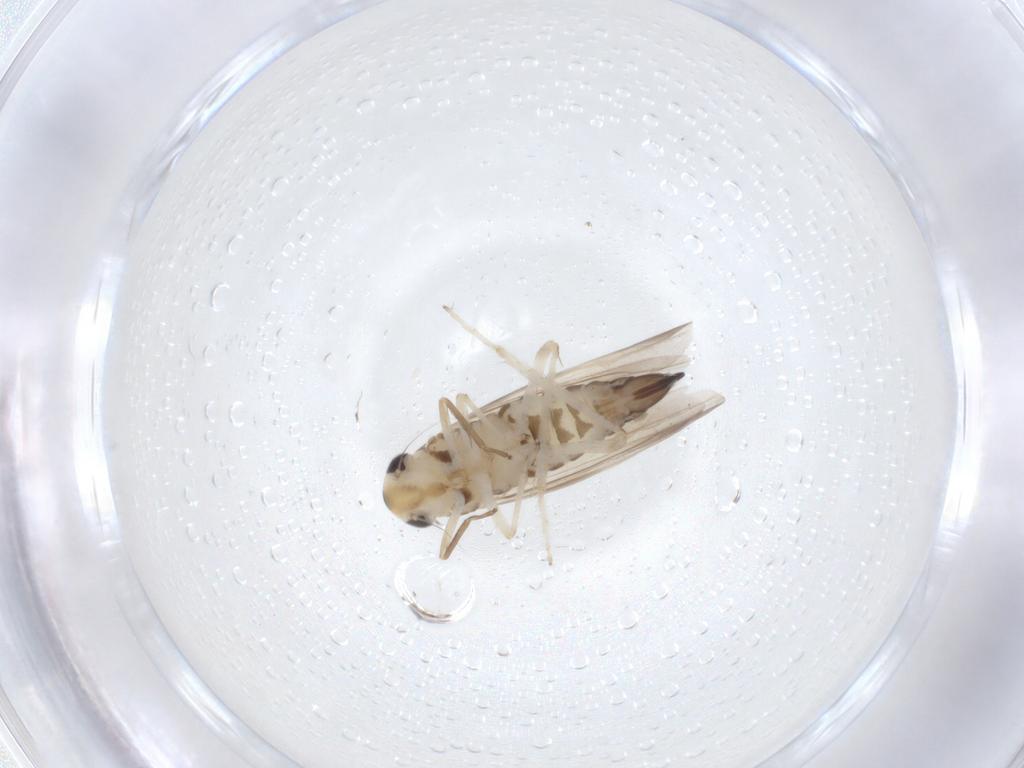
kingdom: Animalia
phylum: Arthropoda
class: Insecta
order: Hemiptera
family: Cicadellidae
